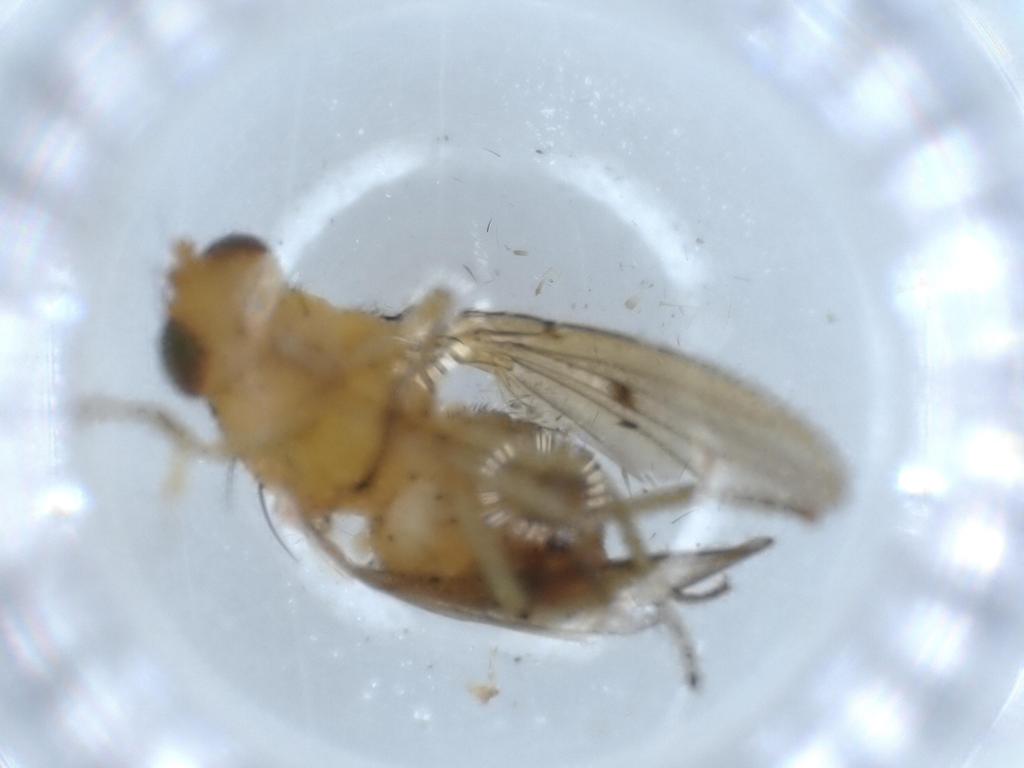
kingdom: Animalia
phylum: Arthropoda
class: Insecta
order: Diptera
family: Cecidomyiidae
